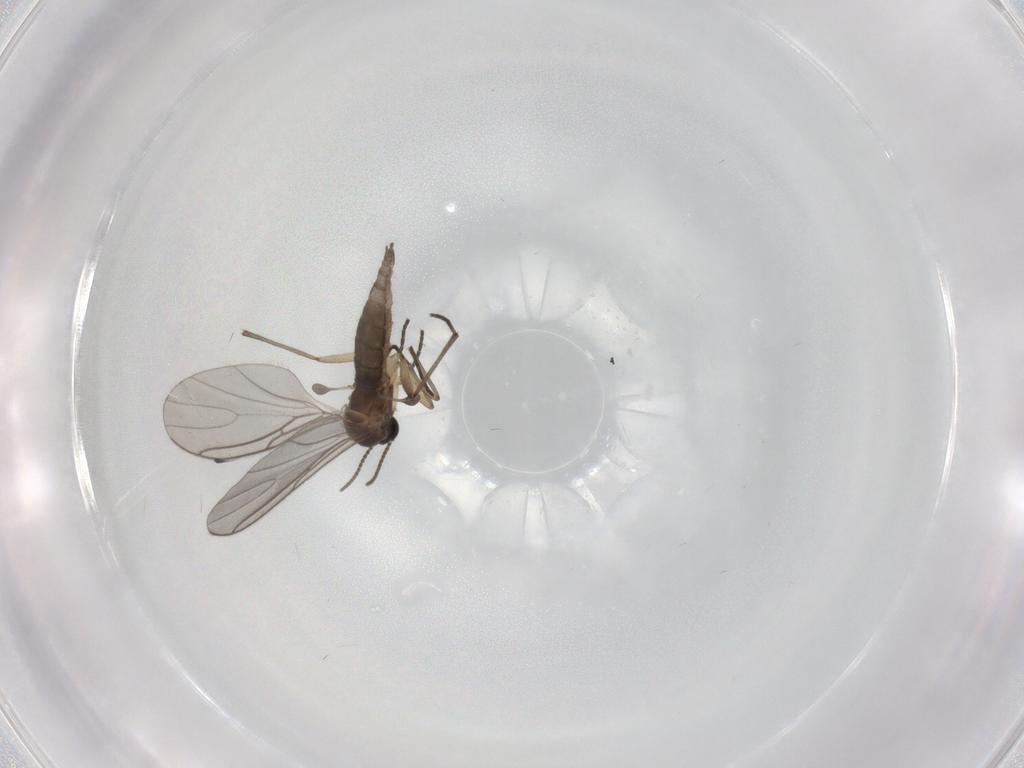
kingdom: Animalia
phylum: Arthropoda
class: Insecta
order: Diptera
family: Sciaridae
